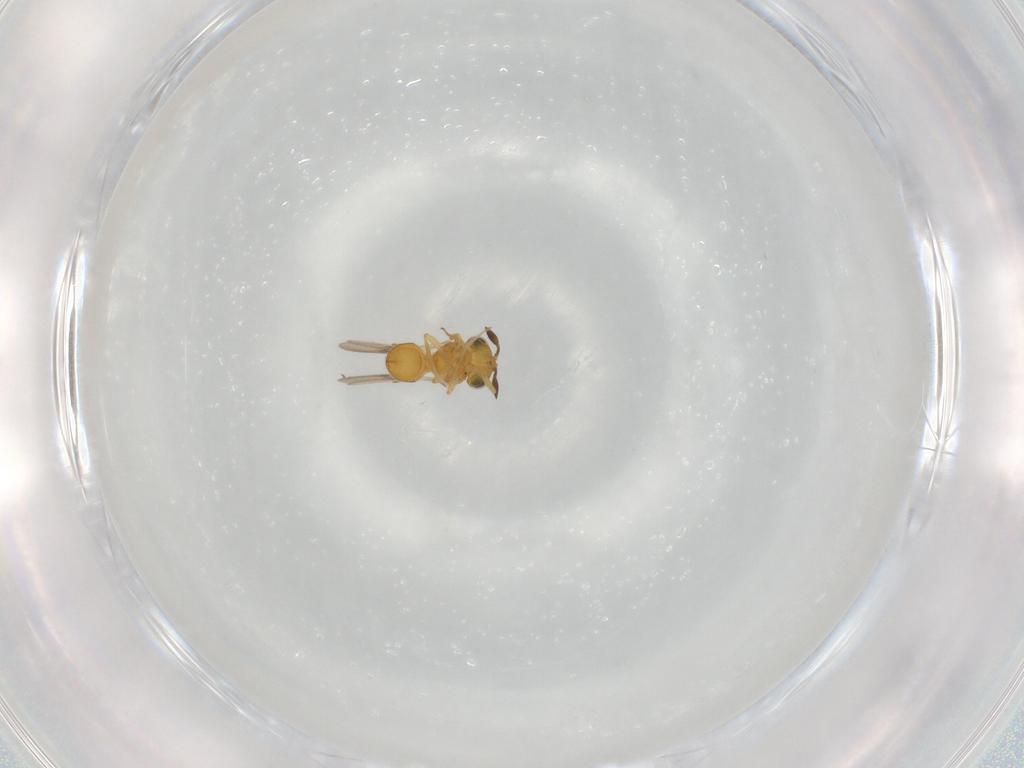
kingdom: Animalia
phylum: Arthropoda
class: Insecta
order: Hymenoptera
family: Scelionidae
